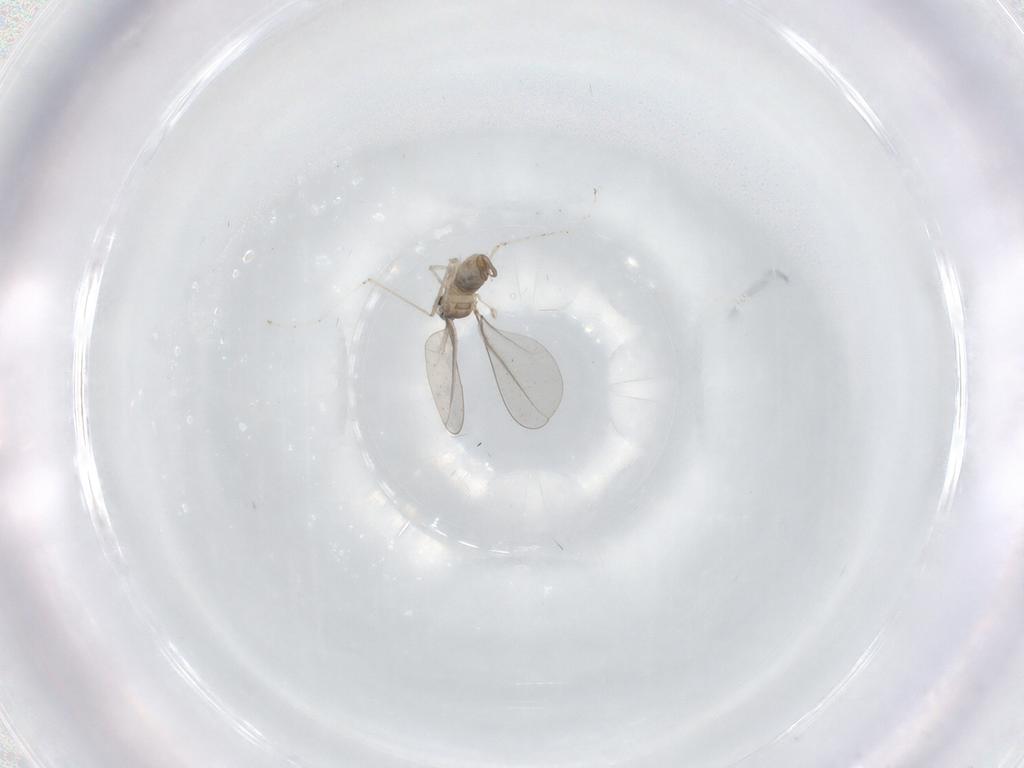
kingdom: Animalia
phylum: Arthropoda
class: Insecta
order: Diptera
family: Cecidomyiidae
